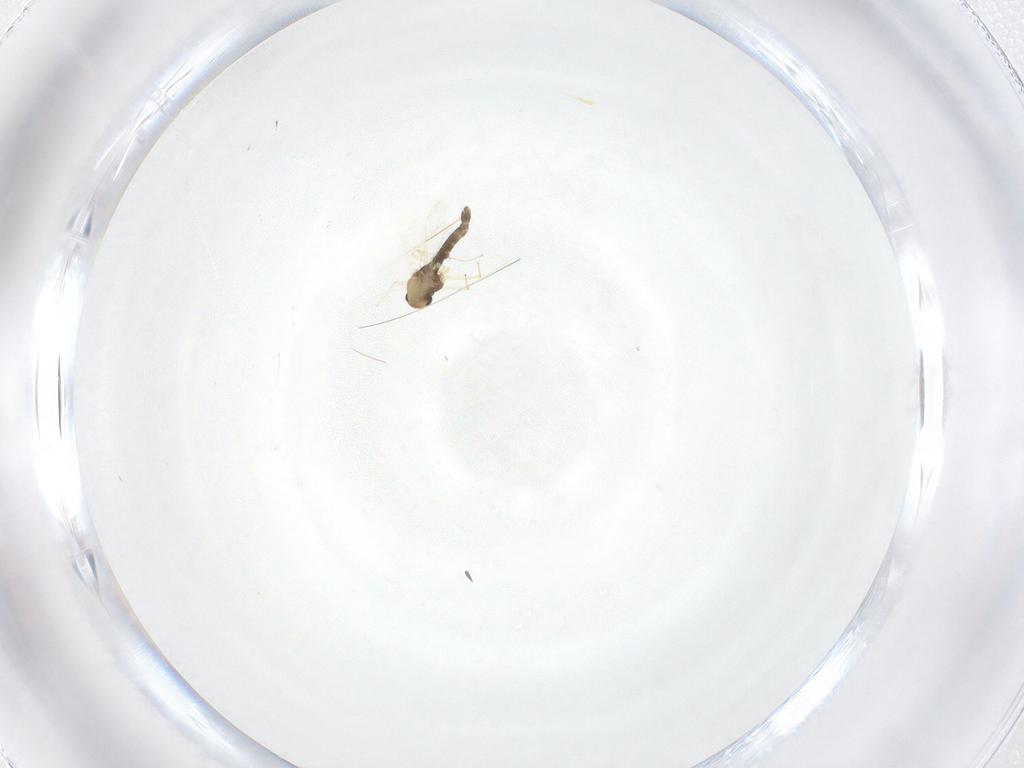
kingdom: Animalia
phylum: Arthropoda
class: Insecta
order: Diptera
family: Chironomidae
